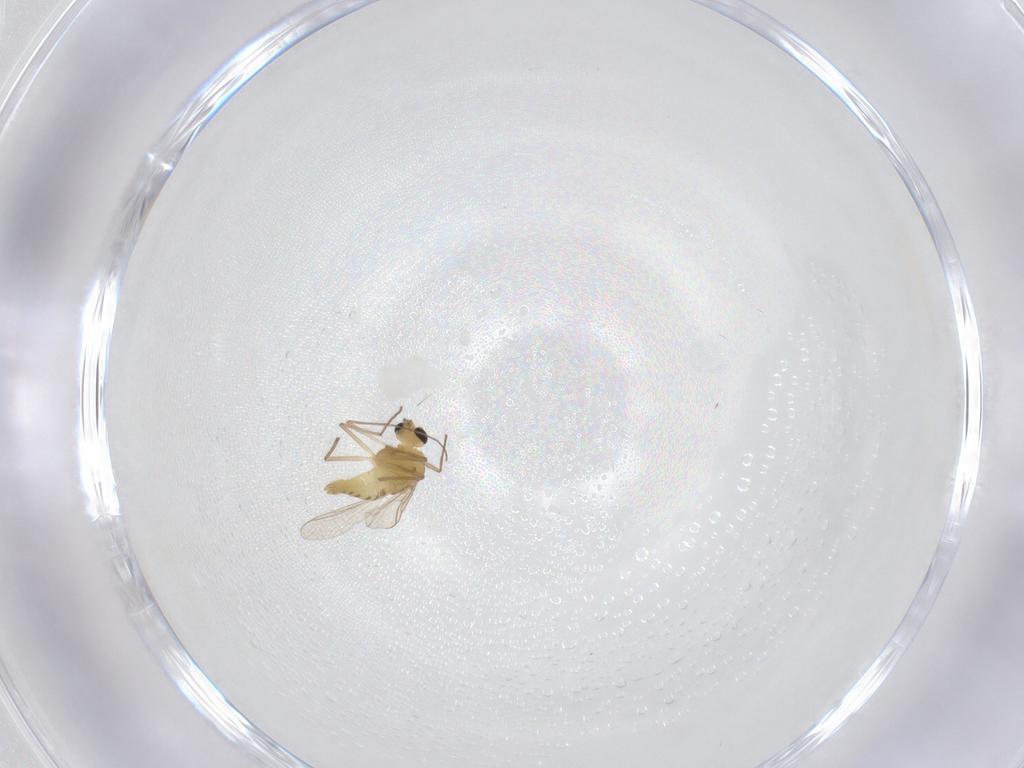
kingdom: Animalia
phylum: Arthropoda
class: Insecta
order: Diptera
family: Chironomidae
